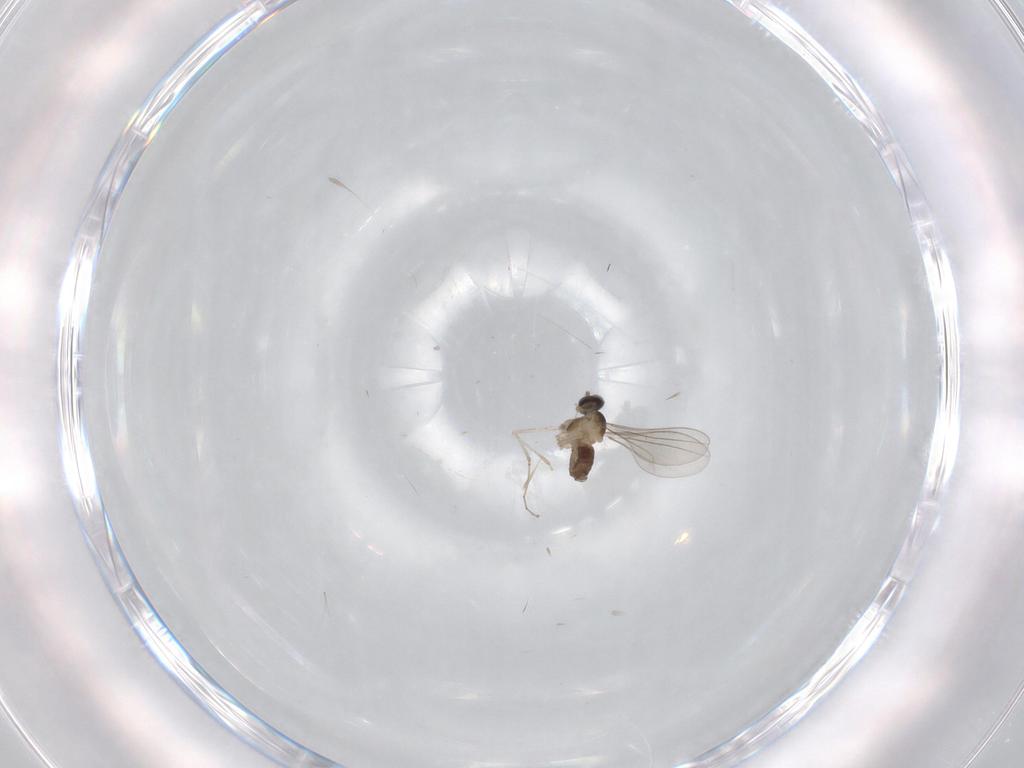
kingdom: Animalia
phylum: Arthropoda
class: Insecta
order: Diptera
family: Cecidomyiidae
